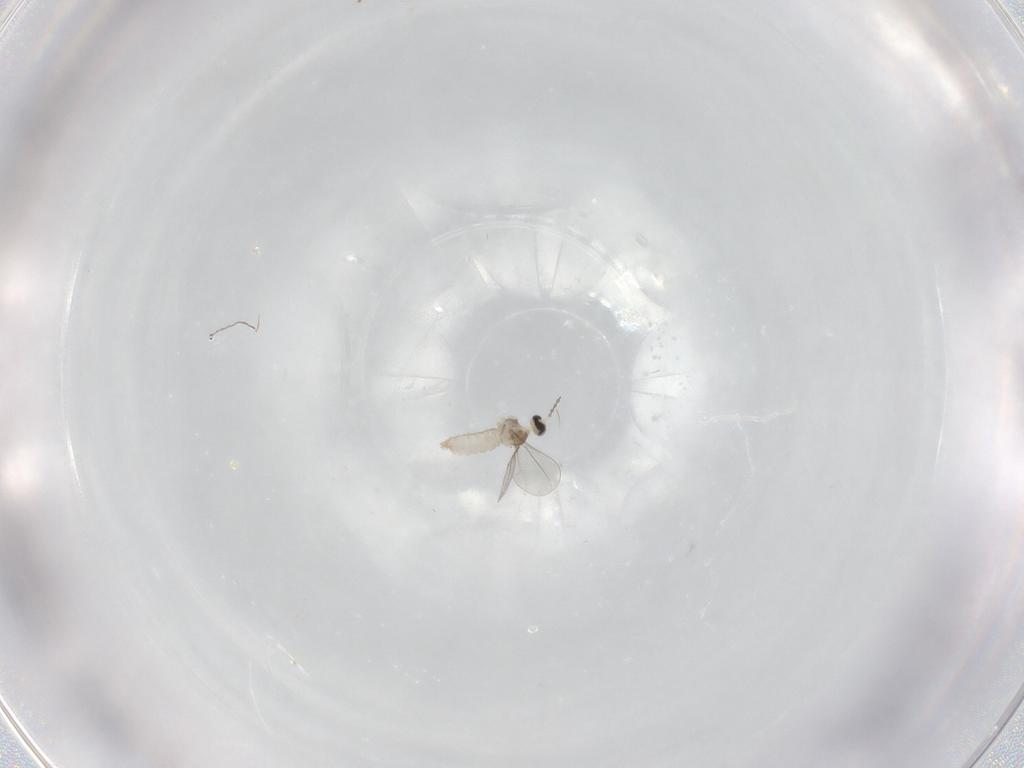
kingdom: Animalia
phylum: Arthropoda
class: Insecta
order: Diptera
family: Cecidomyiidae
